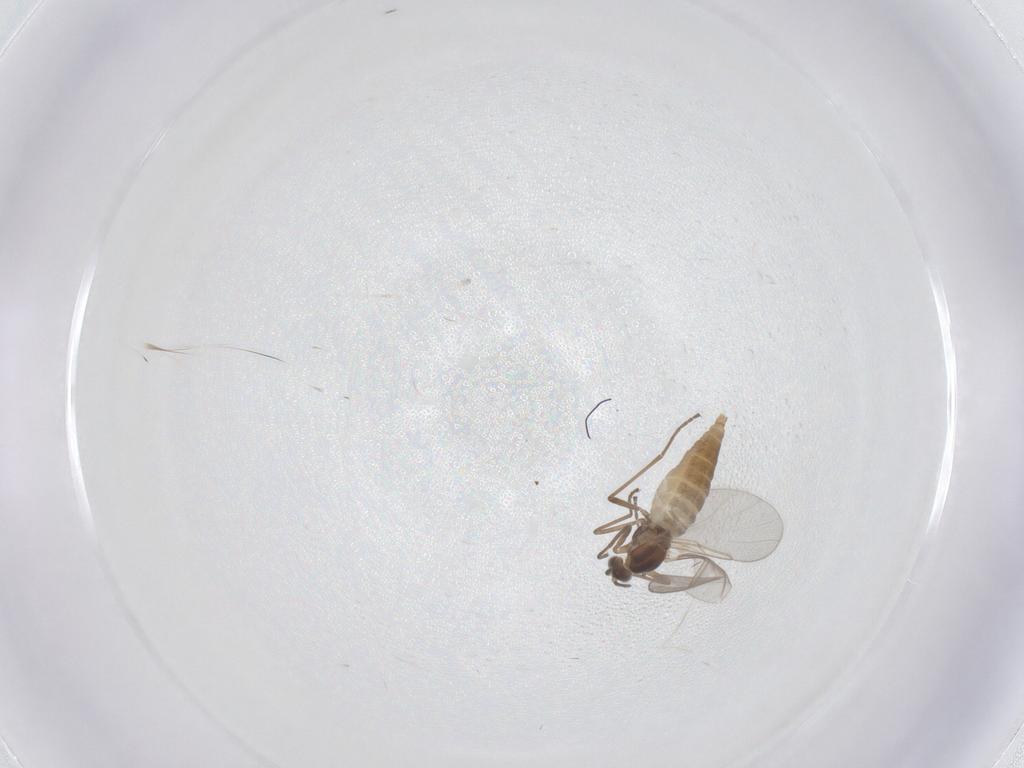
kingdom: Animalia
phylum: Arthropoda
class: Insecta
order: Diptera
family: Cecidomyiidae
